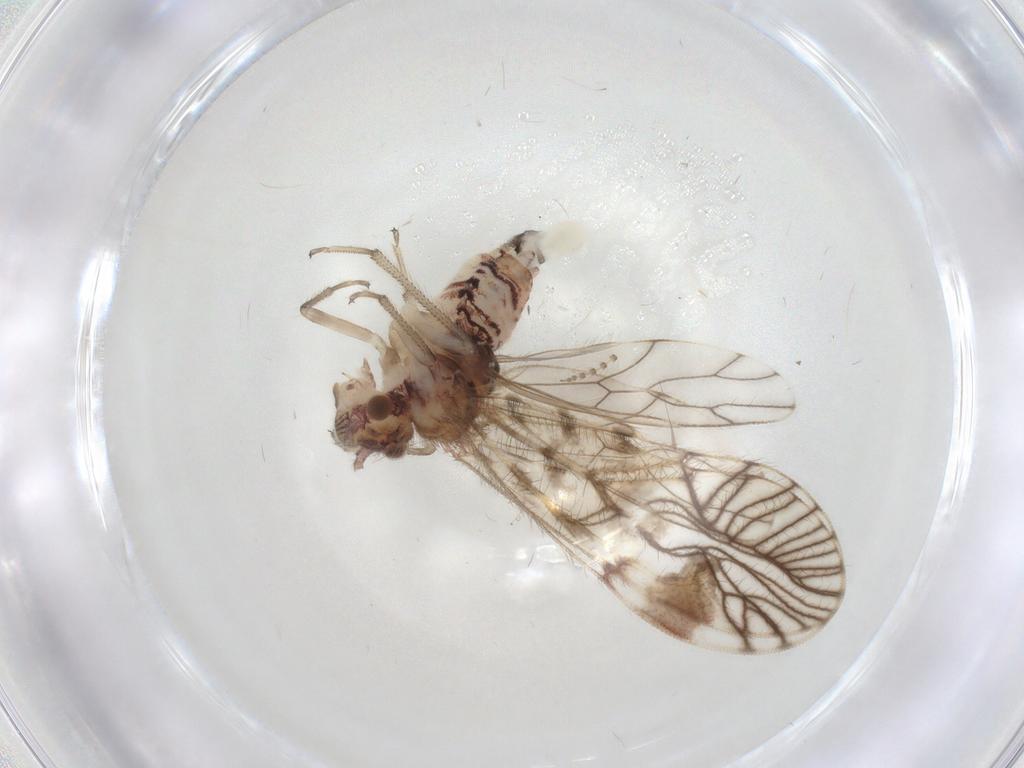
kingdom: Animalia
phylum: Arthropoda
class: Insecta
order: Psocodea
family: Amphipsocidae
